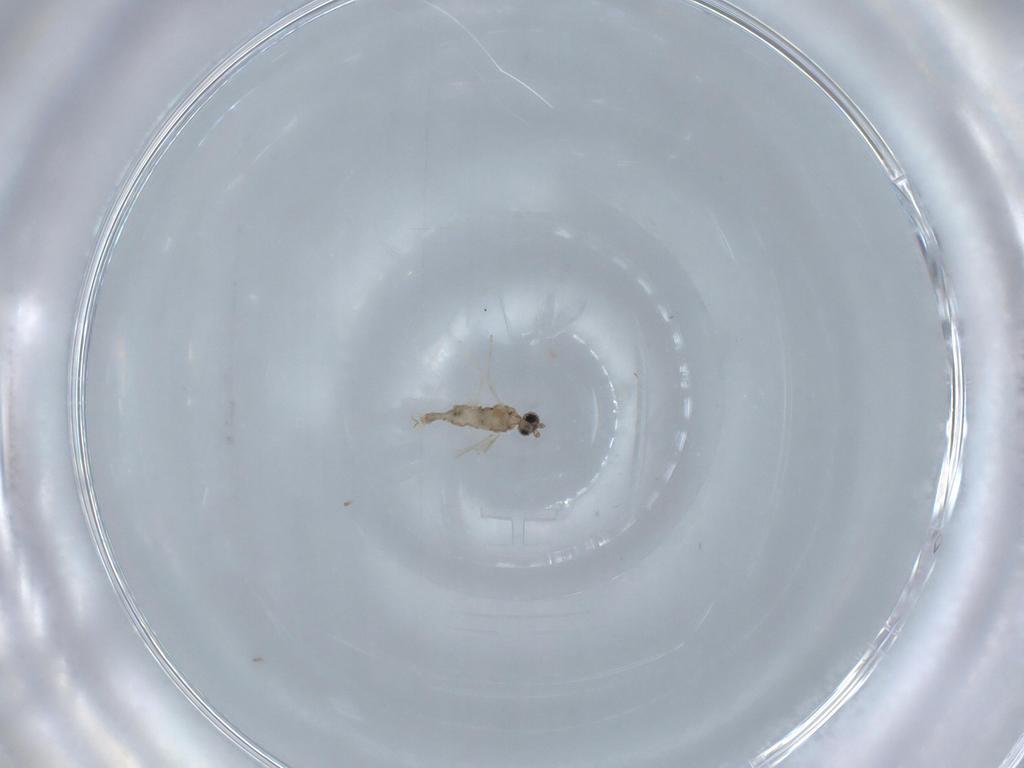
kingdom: Animalia
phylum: Arthropoda
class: Insecta
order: Diptera
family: Cecidomyiidae
